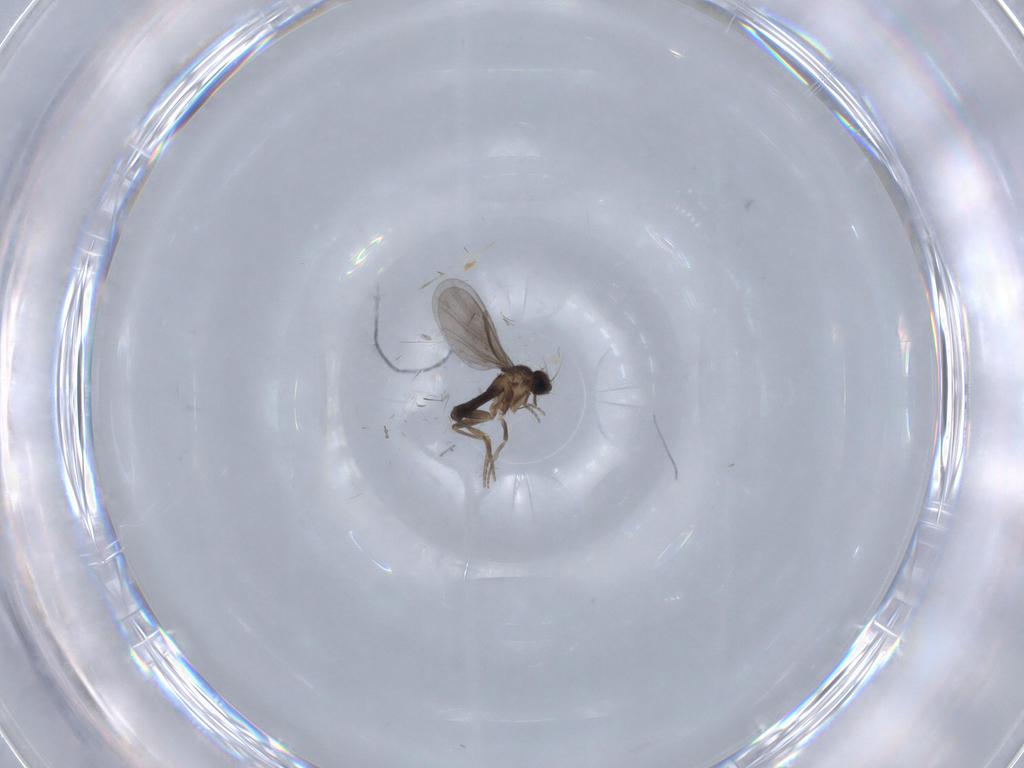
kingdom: Animalia
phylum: Arthropoda
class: Insecta
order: Diptera
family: Sciaridae
